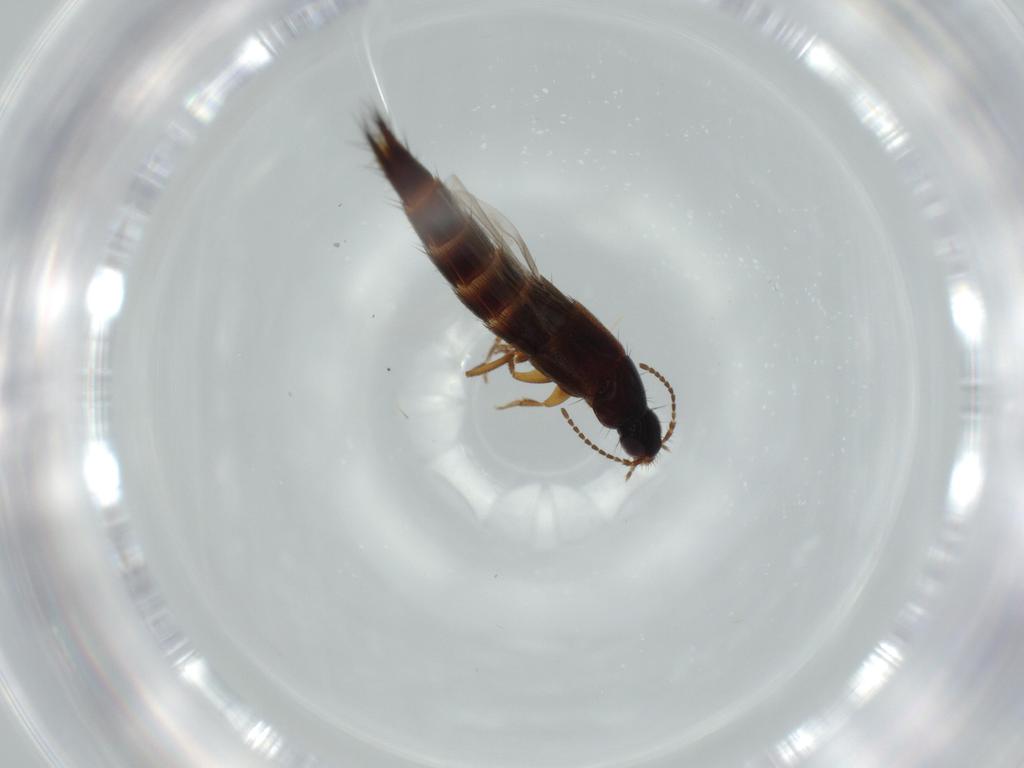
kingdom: Animalia
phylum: Arthropoda
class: Insecta
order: Coleoptera
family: Staphylinidae
